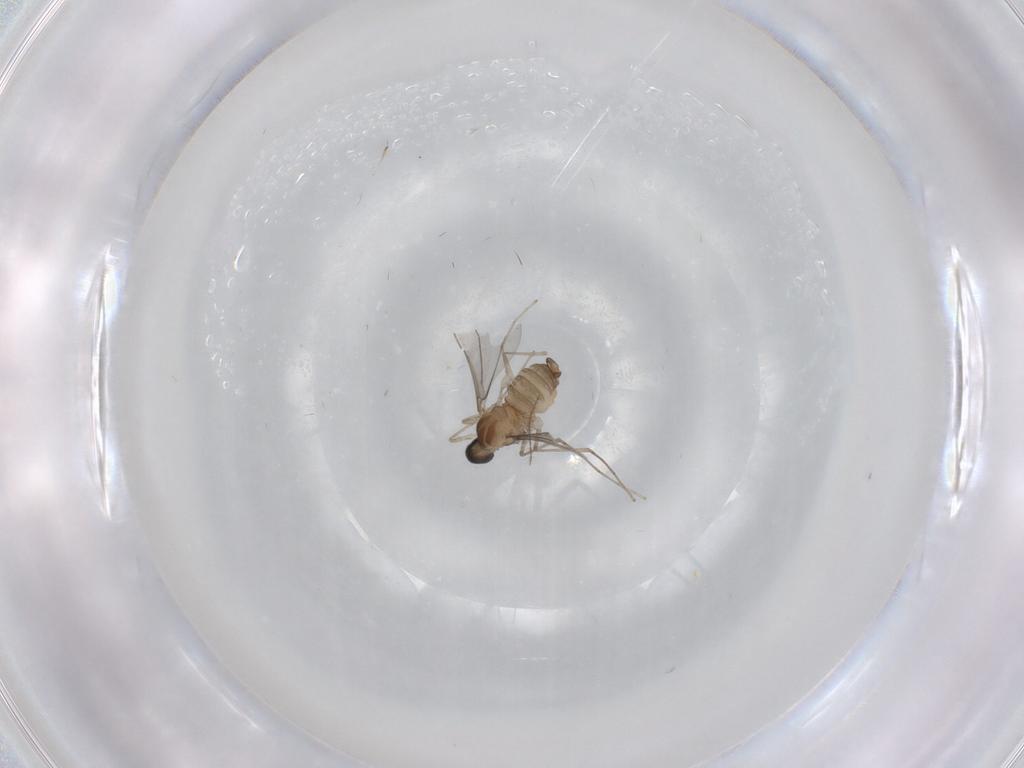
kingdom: Animalia
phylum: Arthropoda
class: Insecta
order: Diptera
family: Cecidomyiidae
